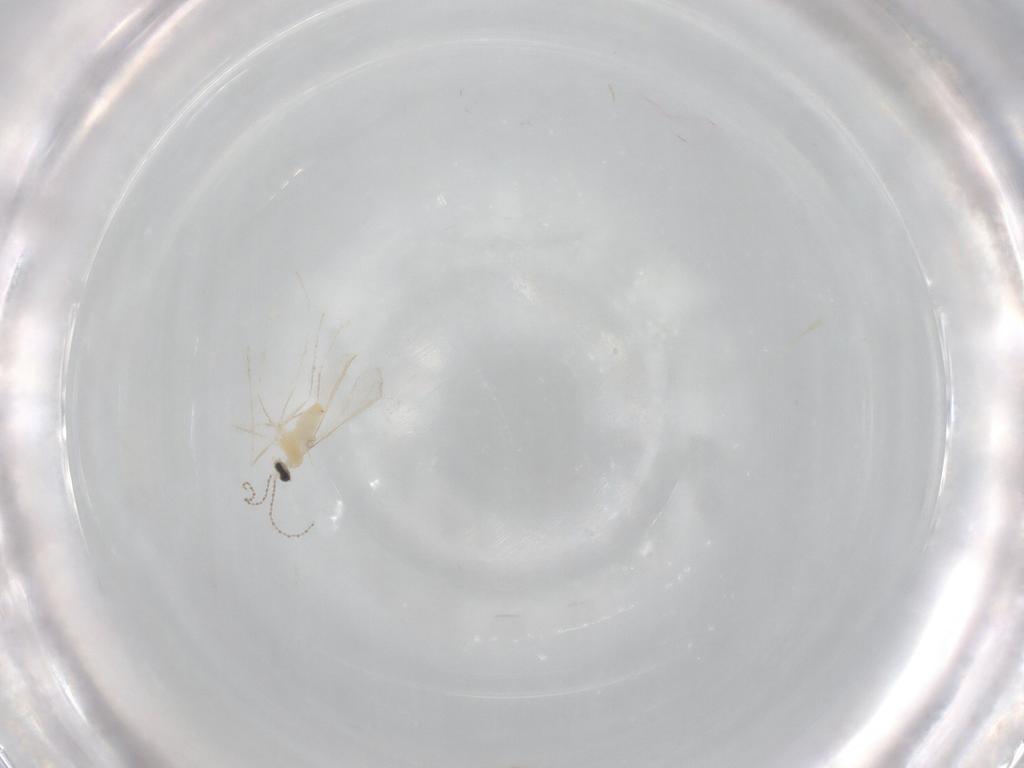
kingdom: Animalia
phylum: Arthropoda
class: Insecta
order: Diptera
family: Cecidomyiidae
